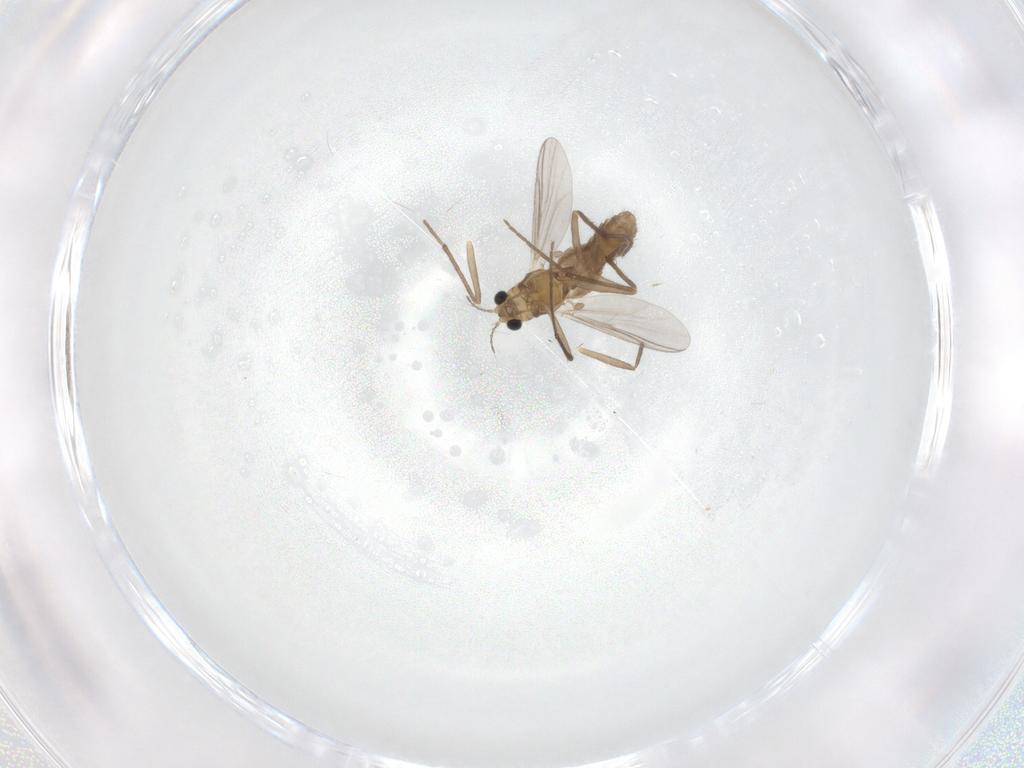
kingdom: Animalia
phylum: Arthropoda
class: Insecta
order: Diptera
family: Chironomidae
